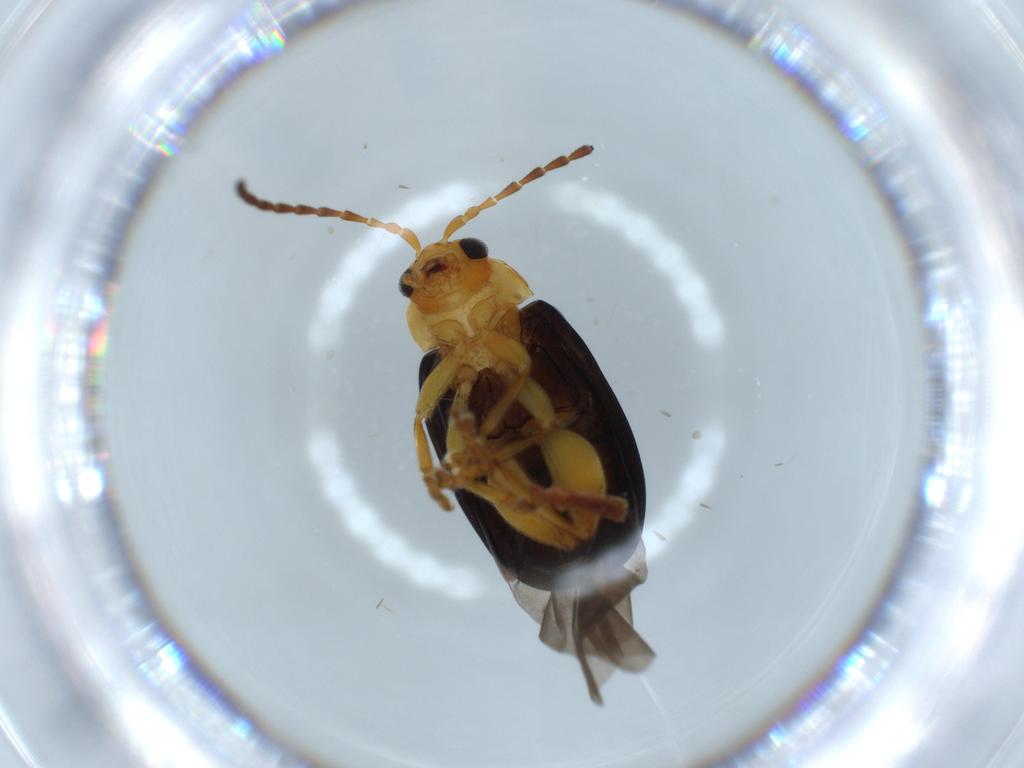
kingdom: Animalia
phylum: Arthropoda
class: Insecta
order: Coleoptera
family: Chrysomelidae
